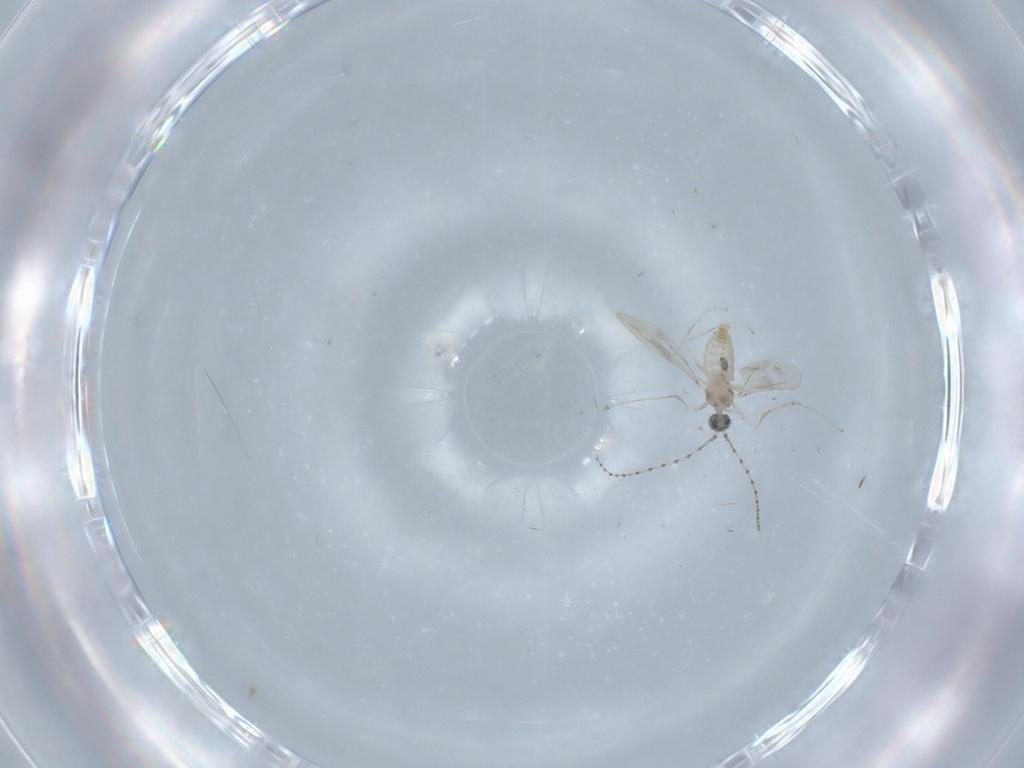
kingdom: Animalia
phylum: Arthropoda
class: Insecta
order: Diptera
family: Cecidomyiidae
